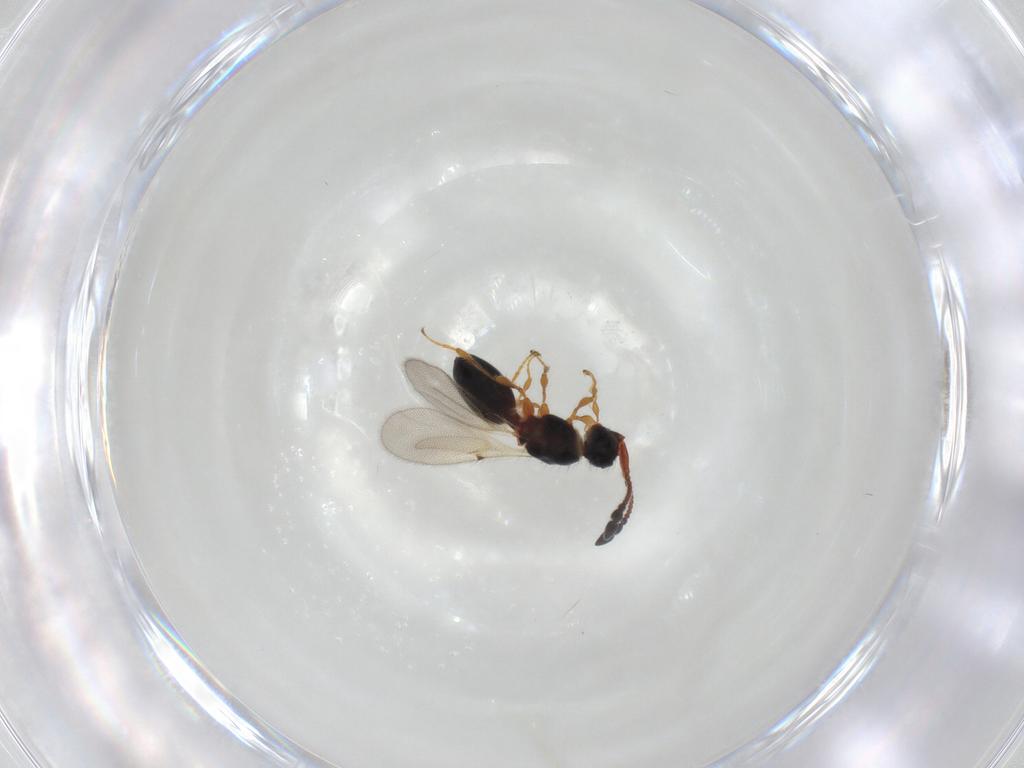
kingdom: Animalia
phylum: Arthropoda
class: Insecta
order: Hymenoptera
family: Diapriidae
